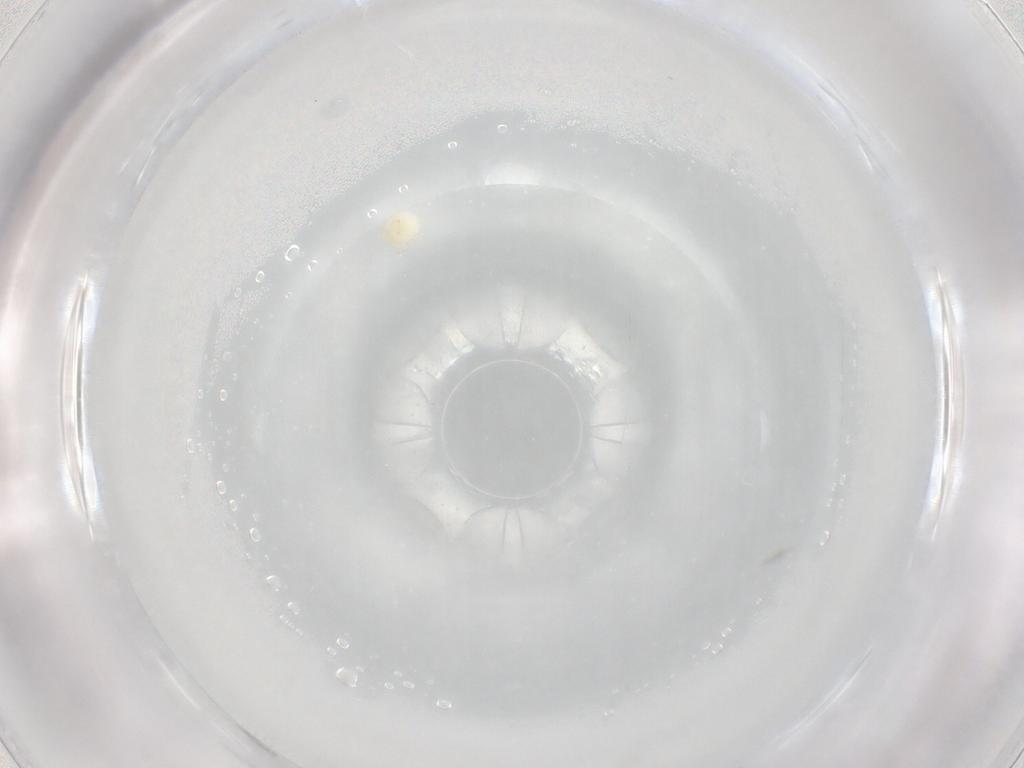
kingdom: Animalia
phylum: Arthropoda
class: Arachnida
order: Trombidiformes
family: Lebertiidae
